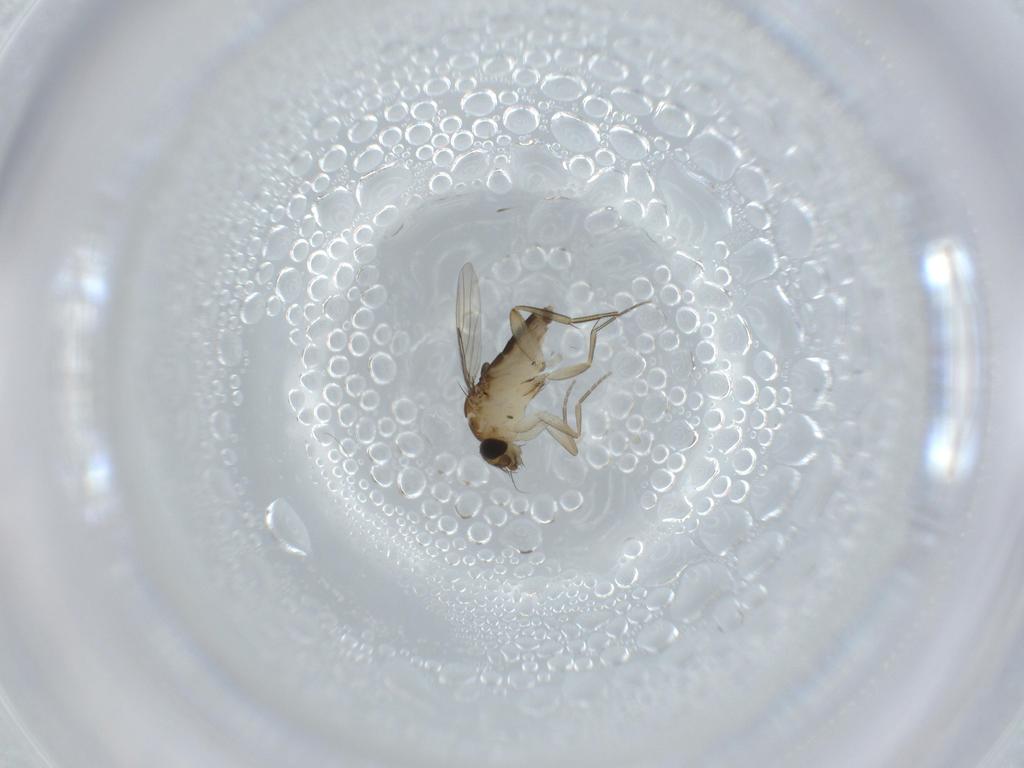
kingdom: Animalia
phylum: Arthropoda
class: Insecta
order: Diptera
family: Phoridae
